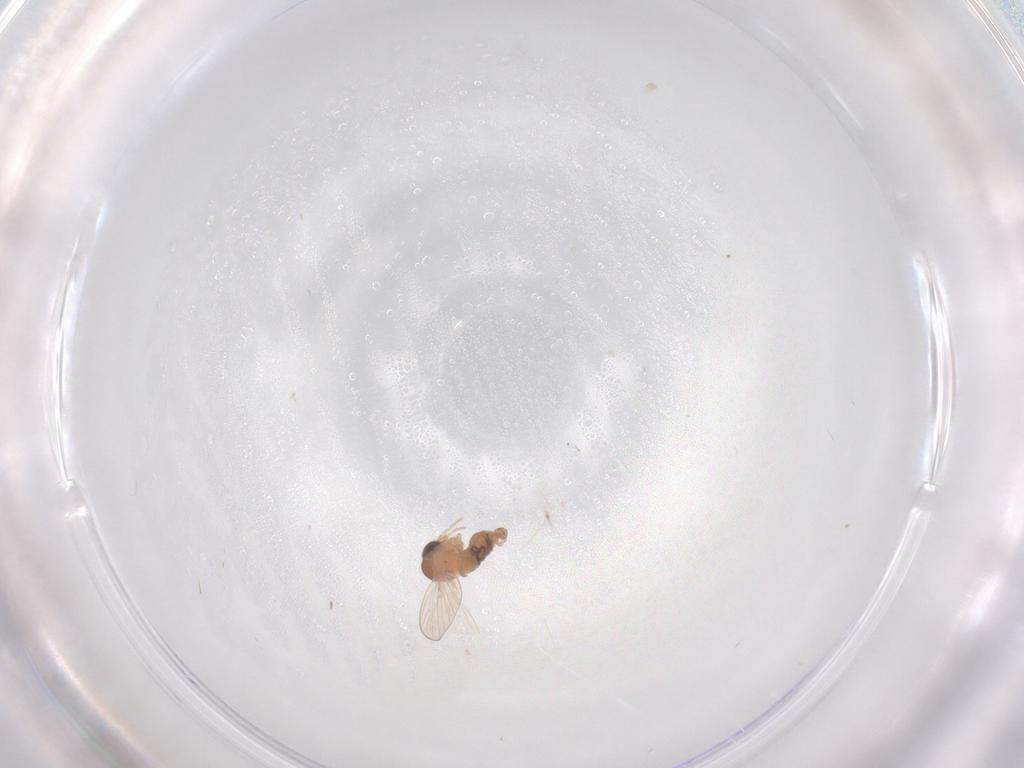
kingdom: Animalia
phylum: Arthropoda
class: Insecta
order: Diptera
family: Psychodidae
